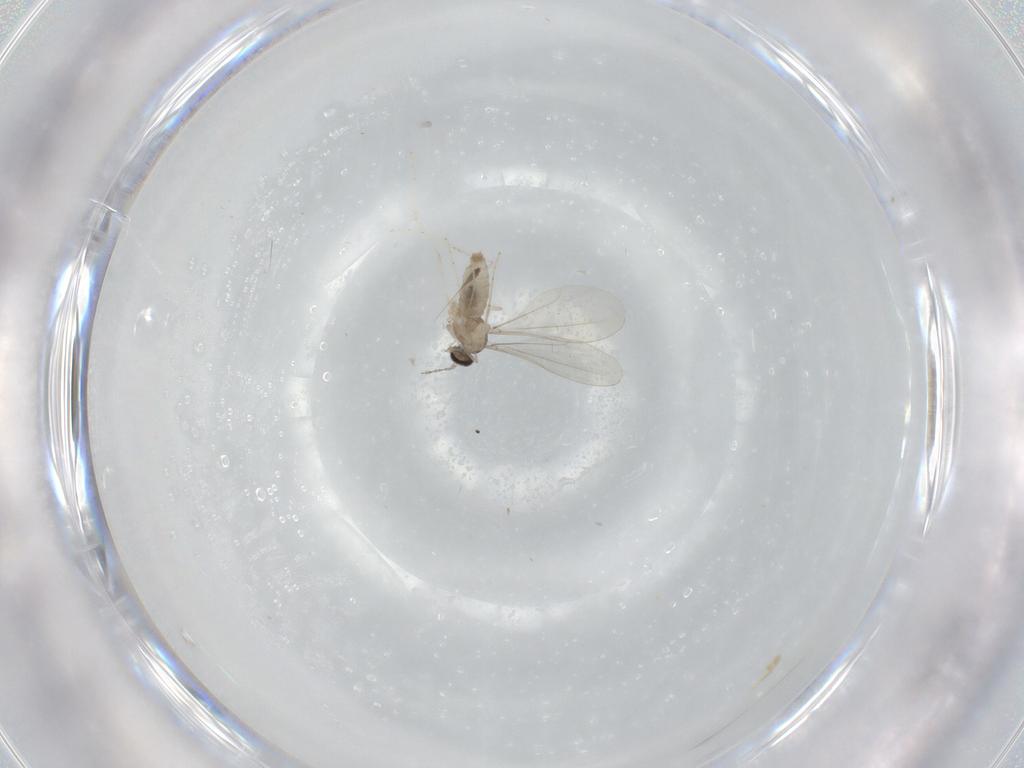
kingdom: Animalia
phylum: Arthropoda
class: Insecta
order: Diptera
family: Cecidomyiidae
